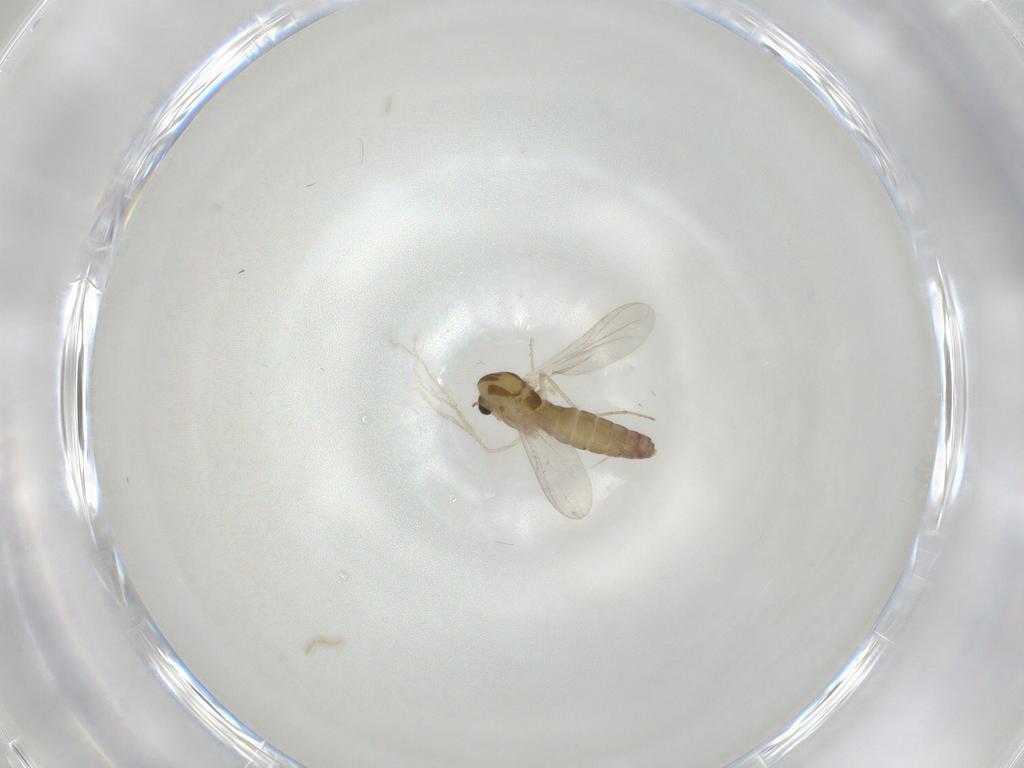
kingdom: Animalia
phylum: Arthropoda
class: Insecta
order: Diptera
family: Chironomidae
